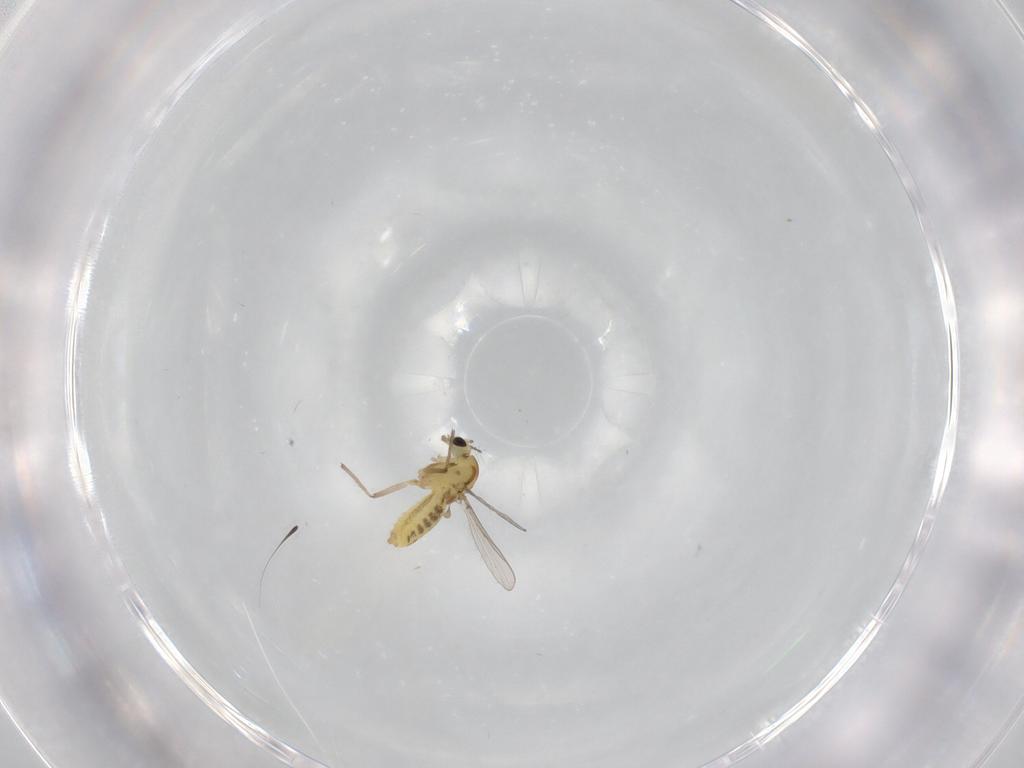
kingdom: Animalia
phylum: Arthropoda
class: Insecta
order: Diptera
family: Chironomidae
